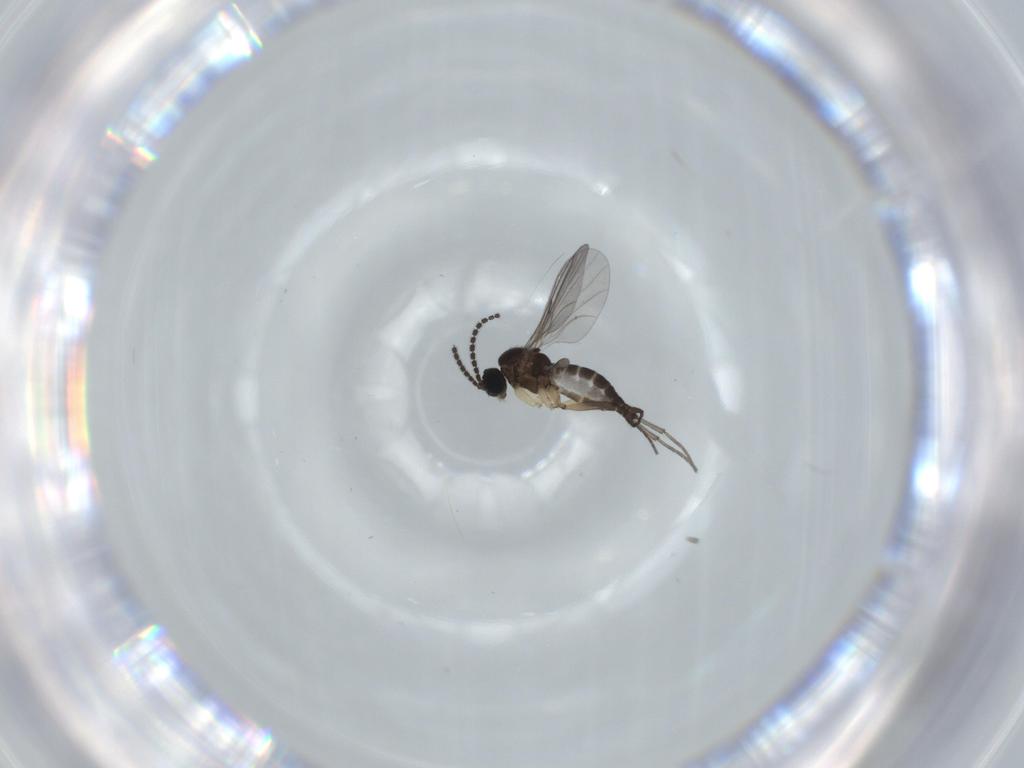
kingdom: Animalia
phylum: Arthropoda
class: Insecta
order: Diptera
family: Sciaridae
